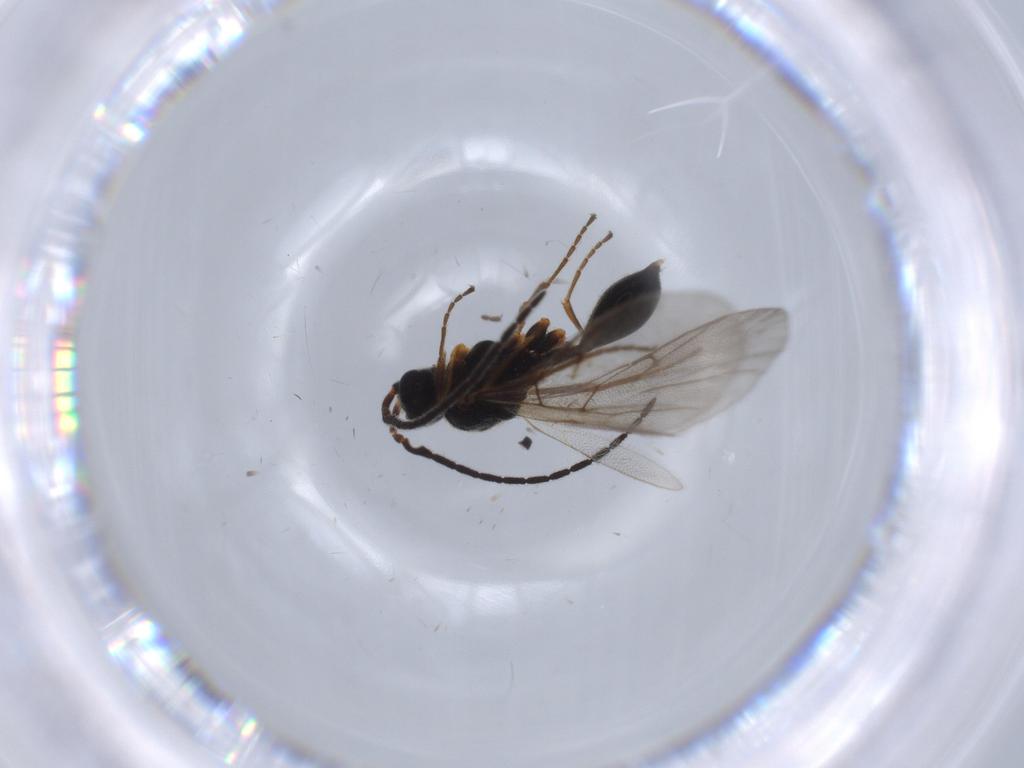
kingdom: Animalia
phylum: Arthropoda
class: Insecta
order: Hymenoptera
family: Diapriidae
